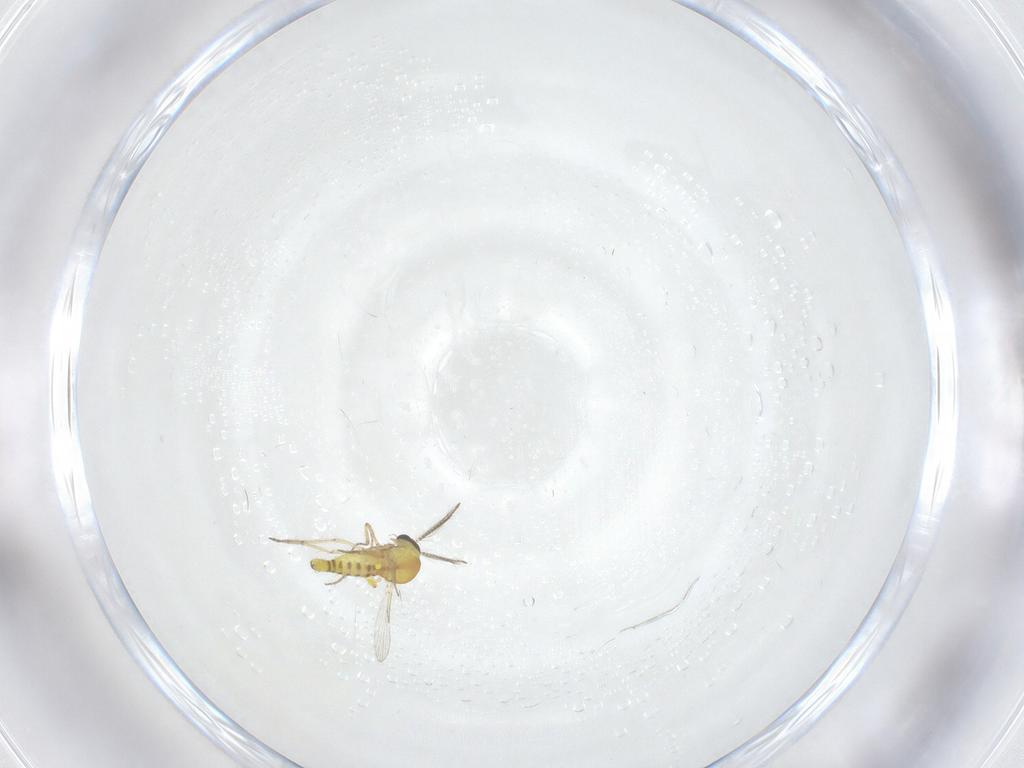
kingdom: Animalia
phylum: Arthropoda
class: Insecta
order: Diptera
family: Ceratopogonidae
